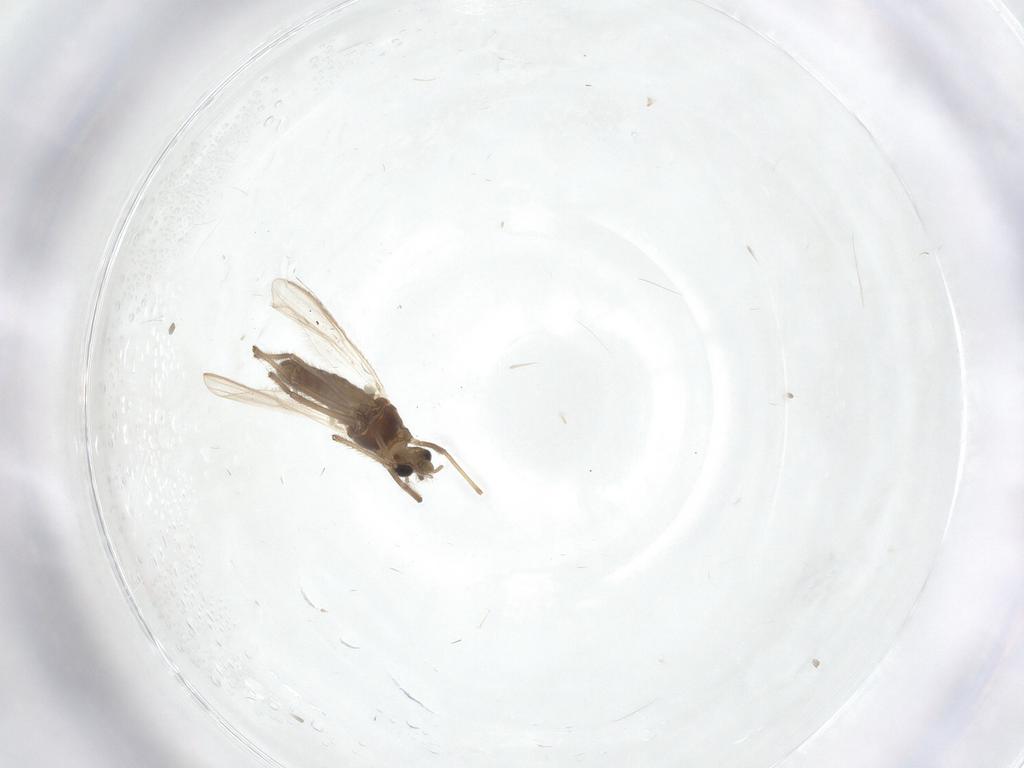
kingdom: Animalia
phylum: Arthropoda
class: Insecta
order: Diptera
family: Chironomidae
